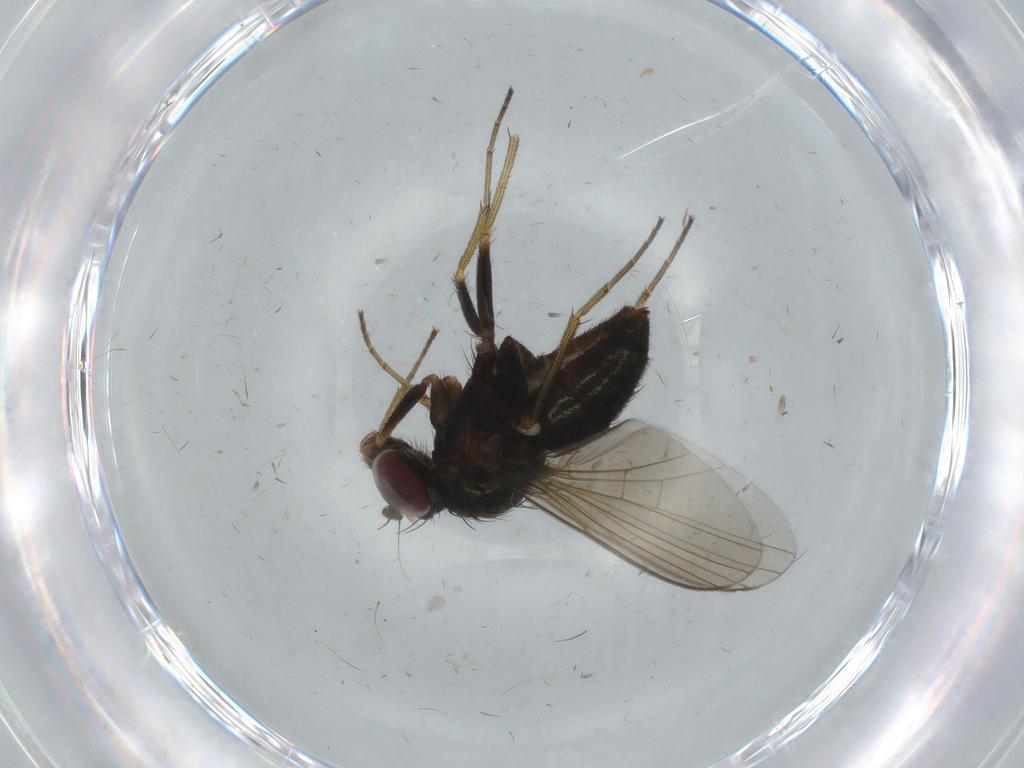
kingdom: Animalia
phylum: Arthropoda
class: Insecta
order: Diptera
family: Dolichopodidae
